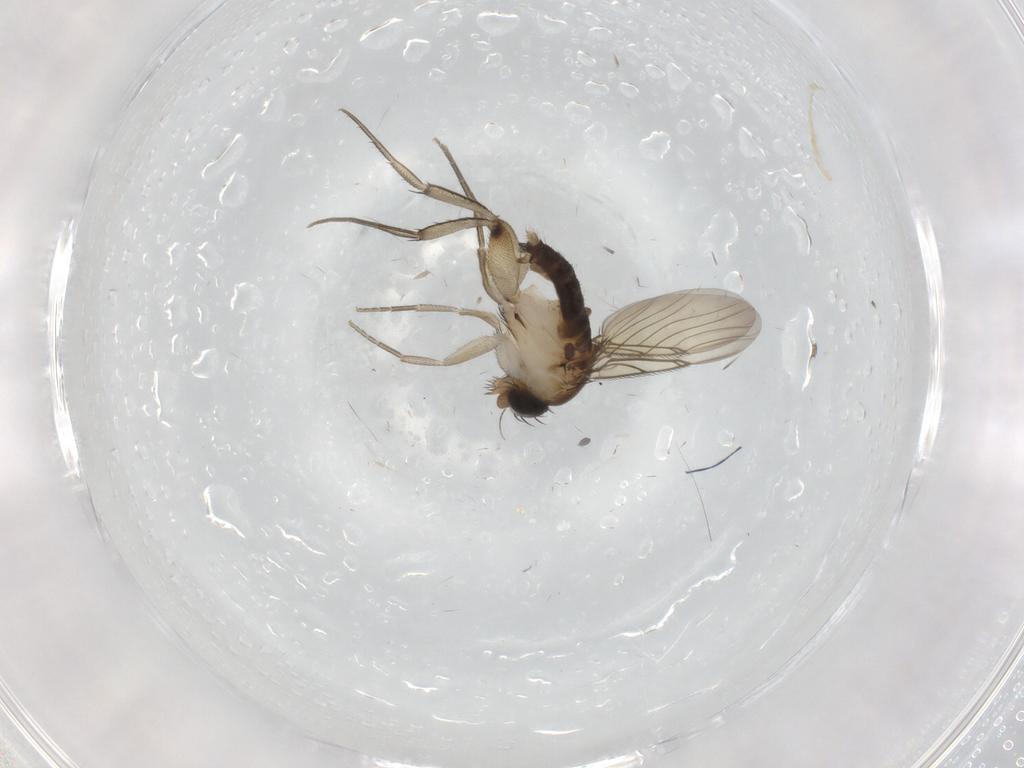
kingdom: Animalia
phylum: Arthropoda
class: Insecta
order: Diptera
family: Phoridae
